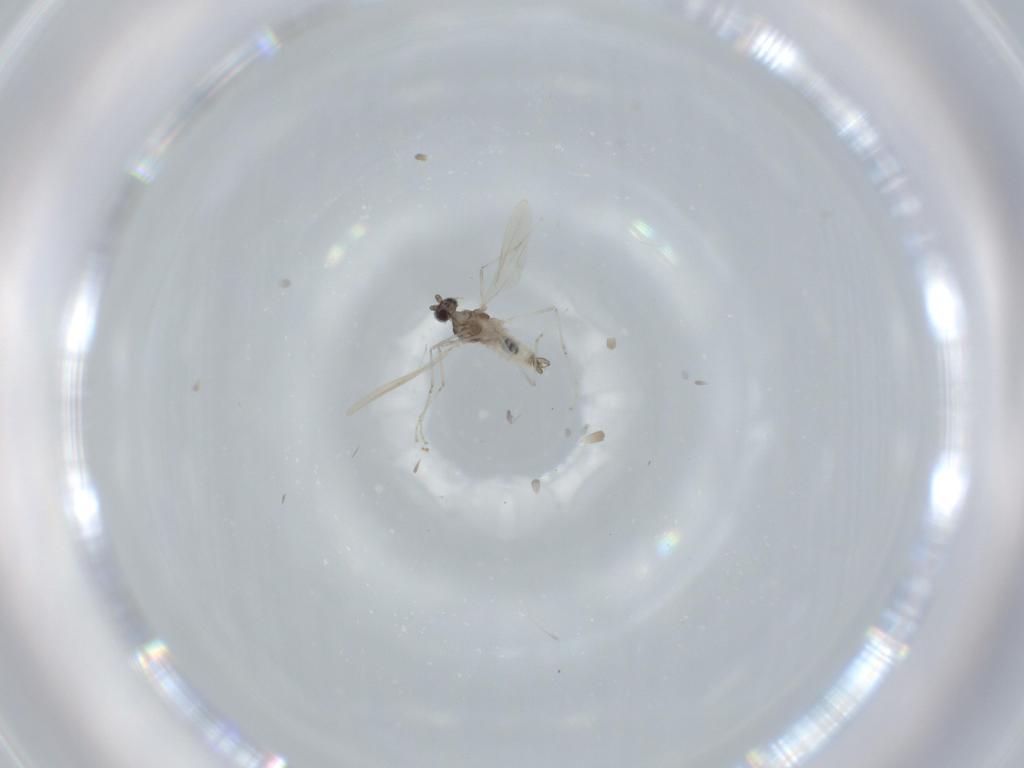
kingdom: Animalia
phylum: Arthropoda
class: Insecta
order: Diptera
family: Cecidomyiidae
